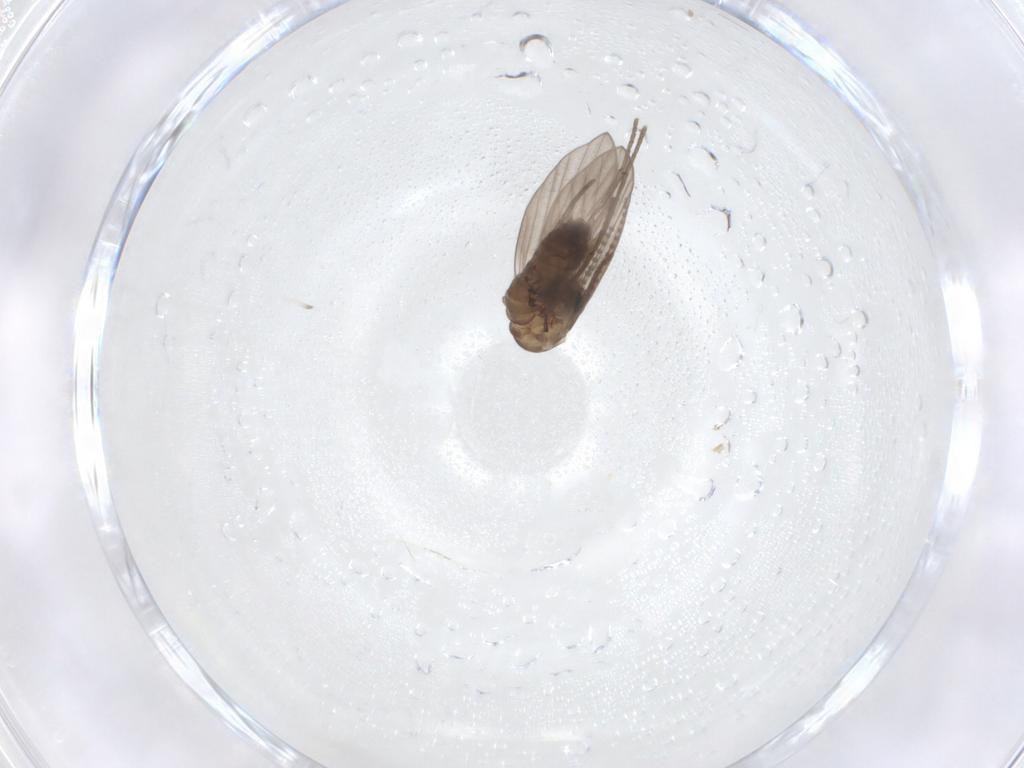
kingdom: Animalia
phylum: Arthropoda
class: Insecta
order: Diptera
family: Psychodidae
